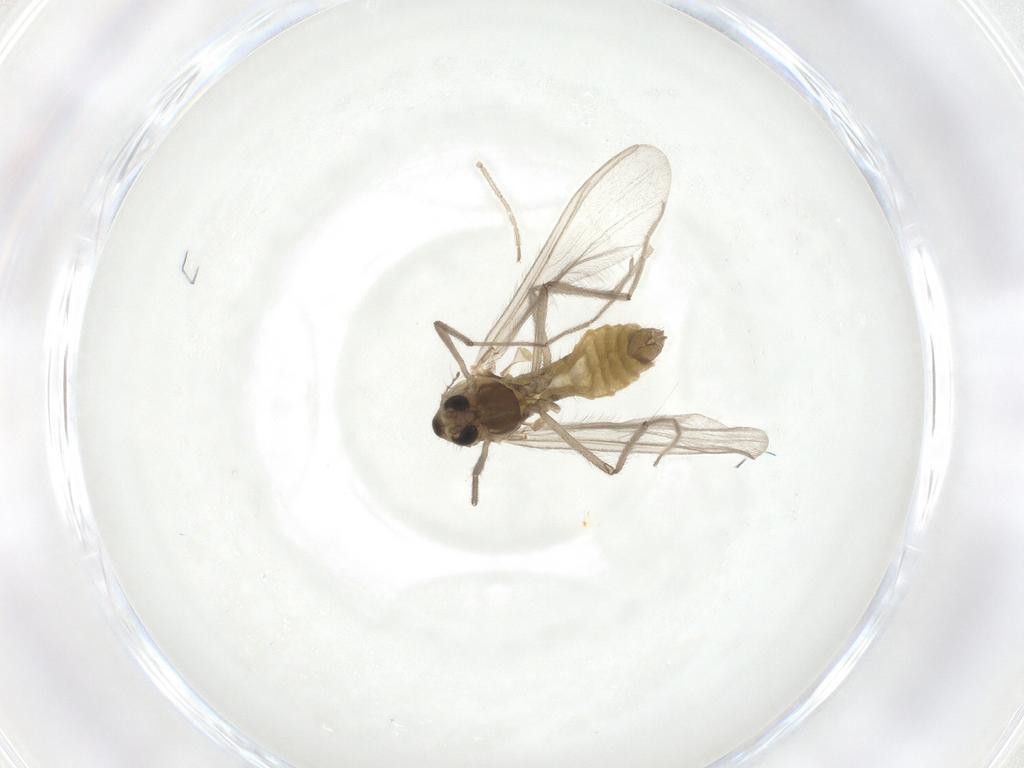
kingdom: Animalia
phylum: Arthropoda
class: Insecta
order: Diptera
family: Chironomidae
